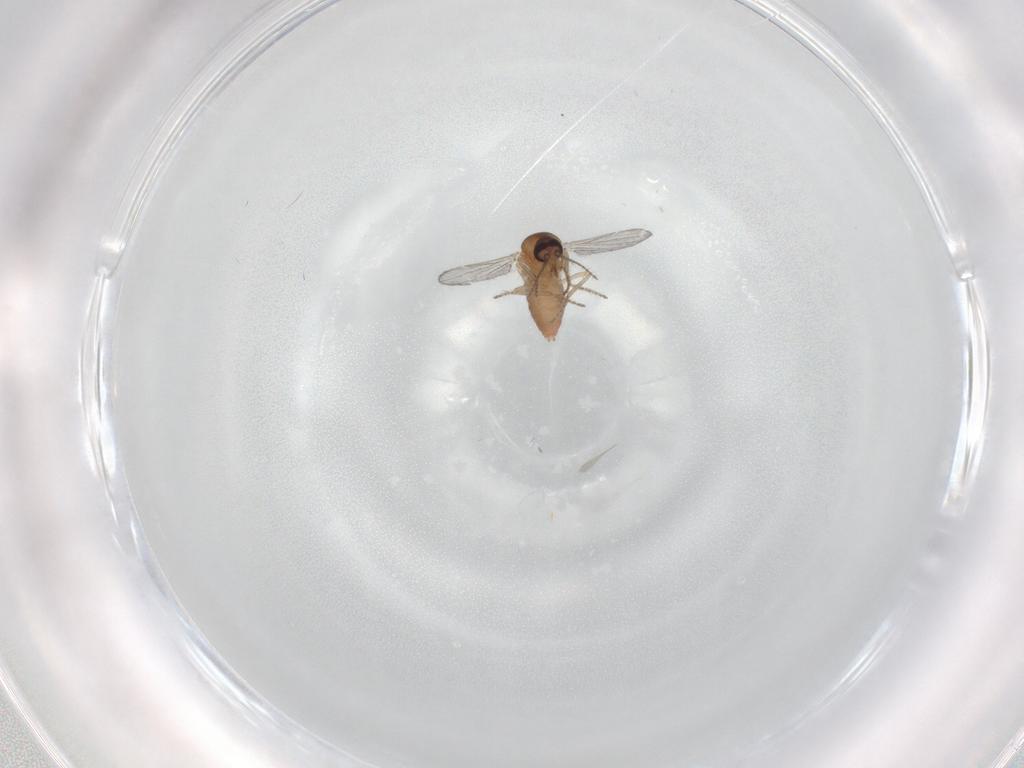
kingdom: Animalia
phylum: Arthropoda
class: Insecta
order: Diptera
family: Ceratopogonidae
